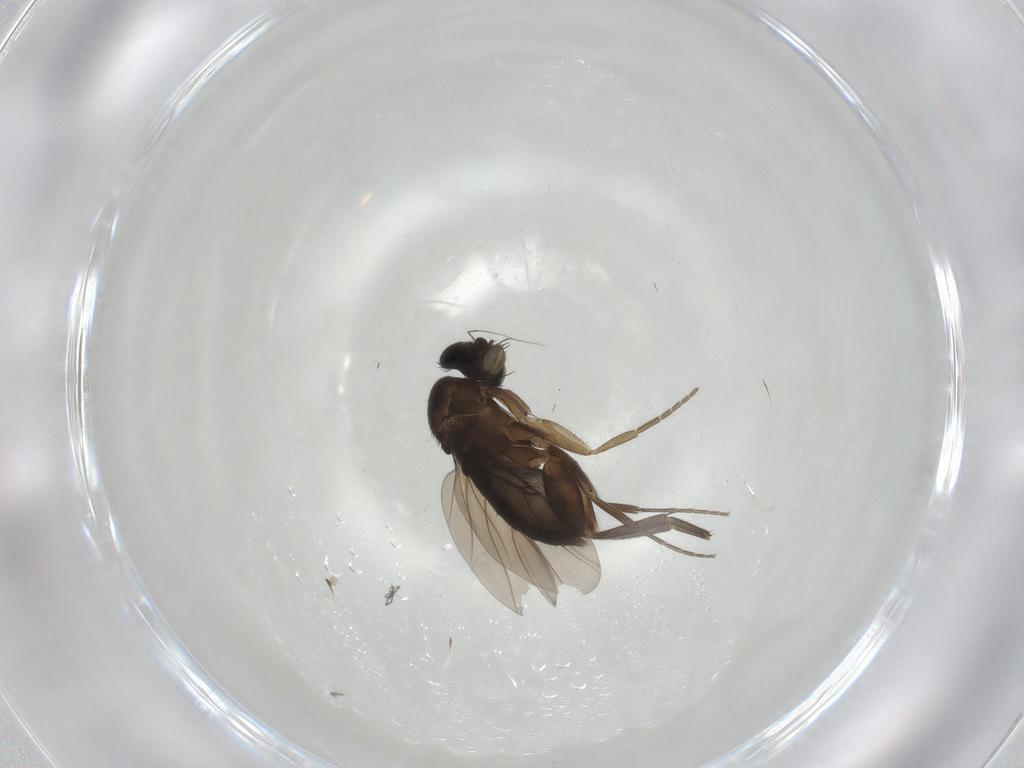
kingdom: Animalia
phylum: Arthropoda
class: Insecta
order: Diptera
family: Phoridae
